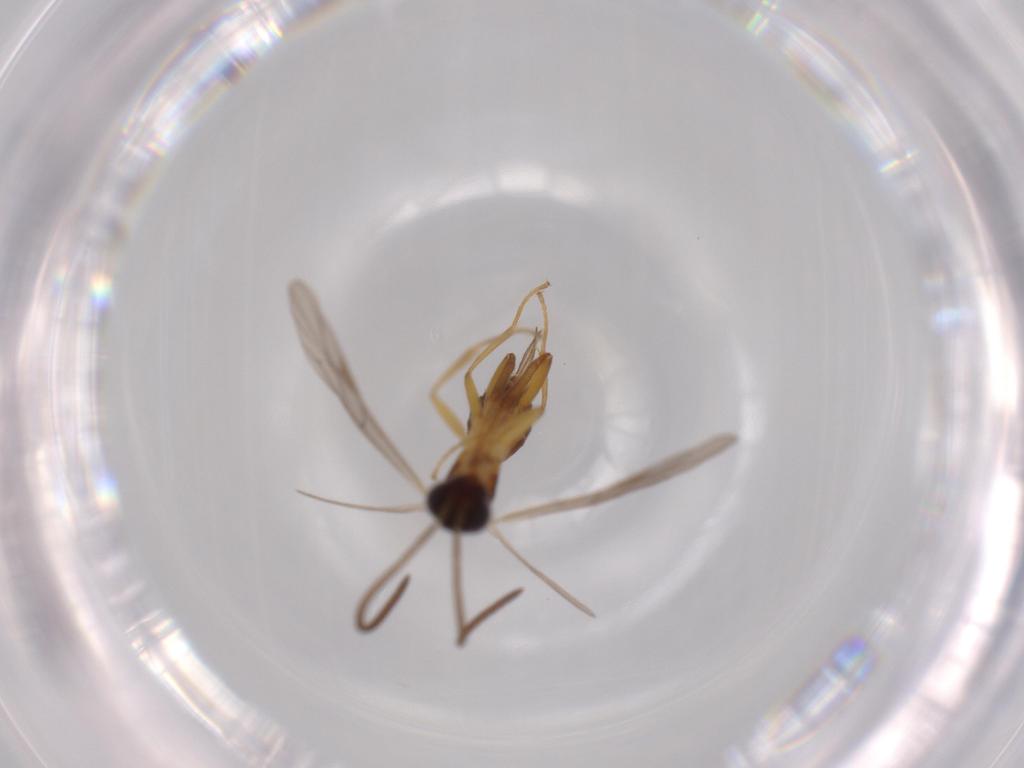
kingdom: Animalia
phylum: Arthropoda
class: Insecta
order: Hymenoptera
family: Ichneumonidae
